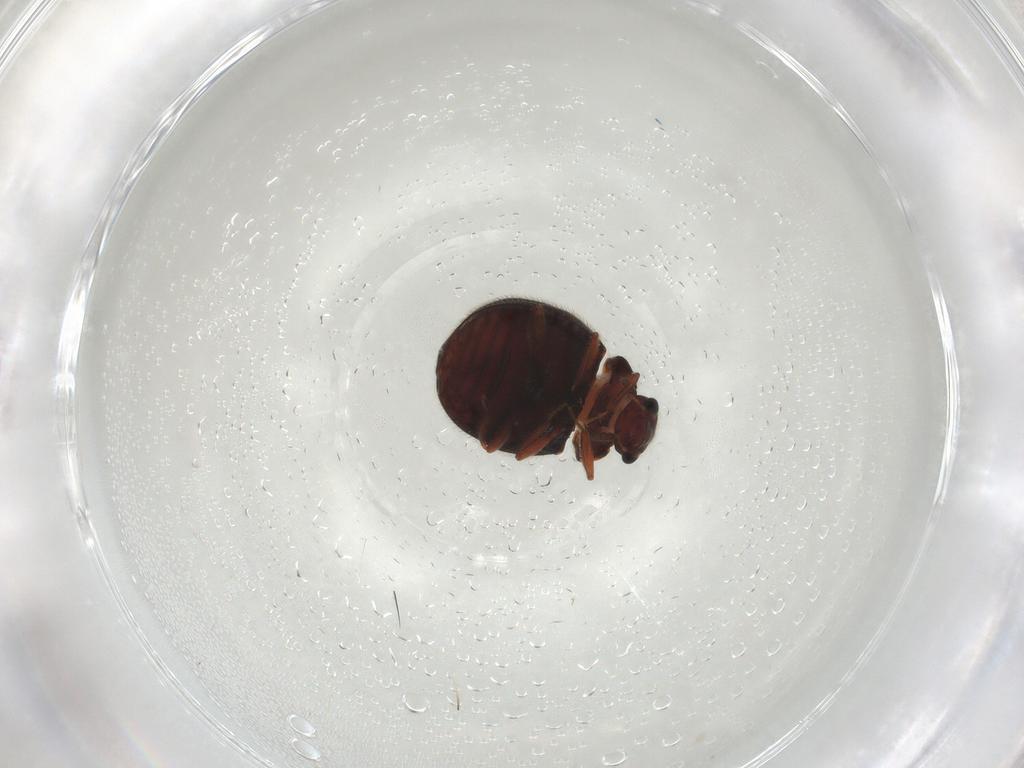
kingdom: Animalia
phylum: Arthropoda
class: Insecta
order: Coleoptera
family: Sphindidae
